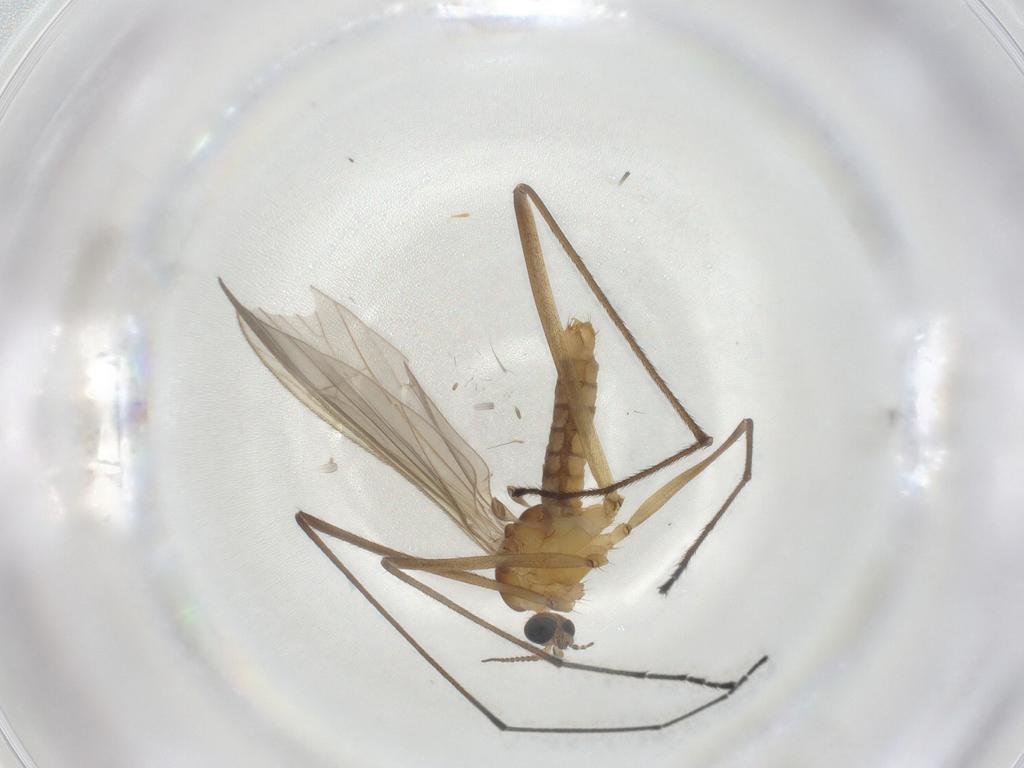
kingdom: Animalia
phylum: Arthropoda
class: Insecta
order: Diptera
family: Limoniidae
